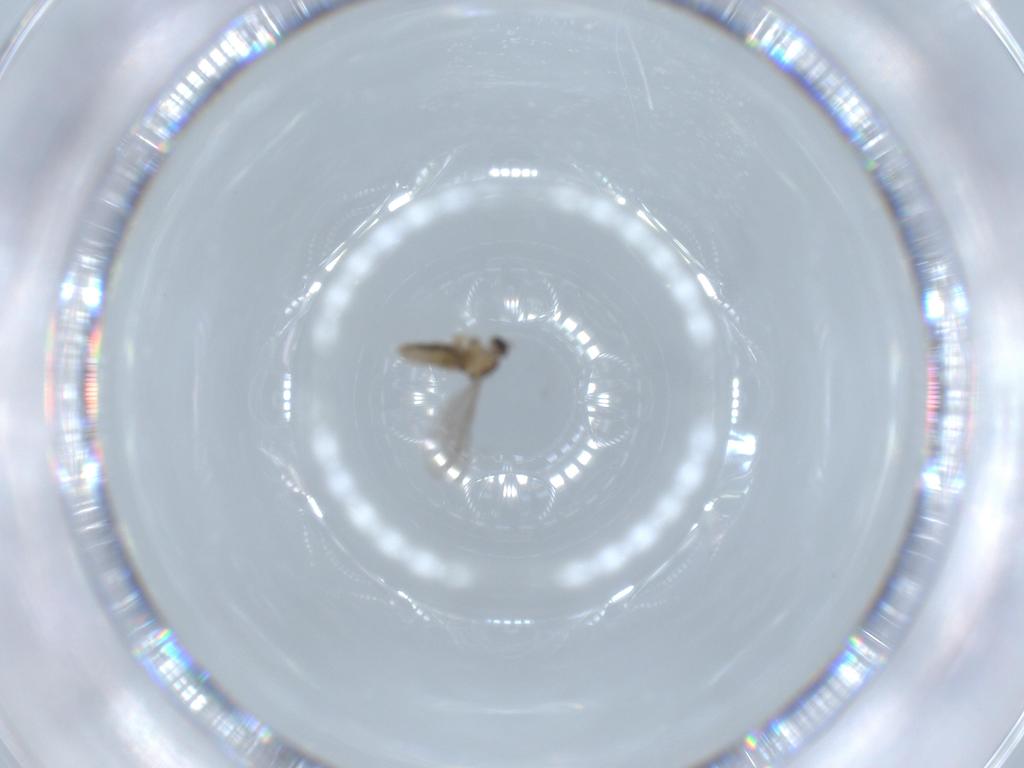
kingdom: Animalia
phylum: Arthropoda
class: Insecta
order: Diptera
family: Cecidomyiidae
